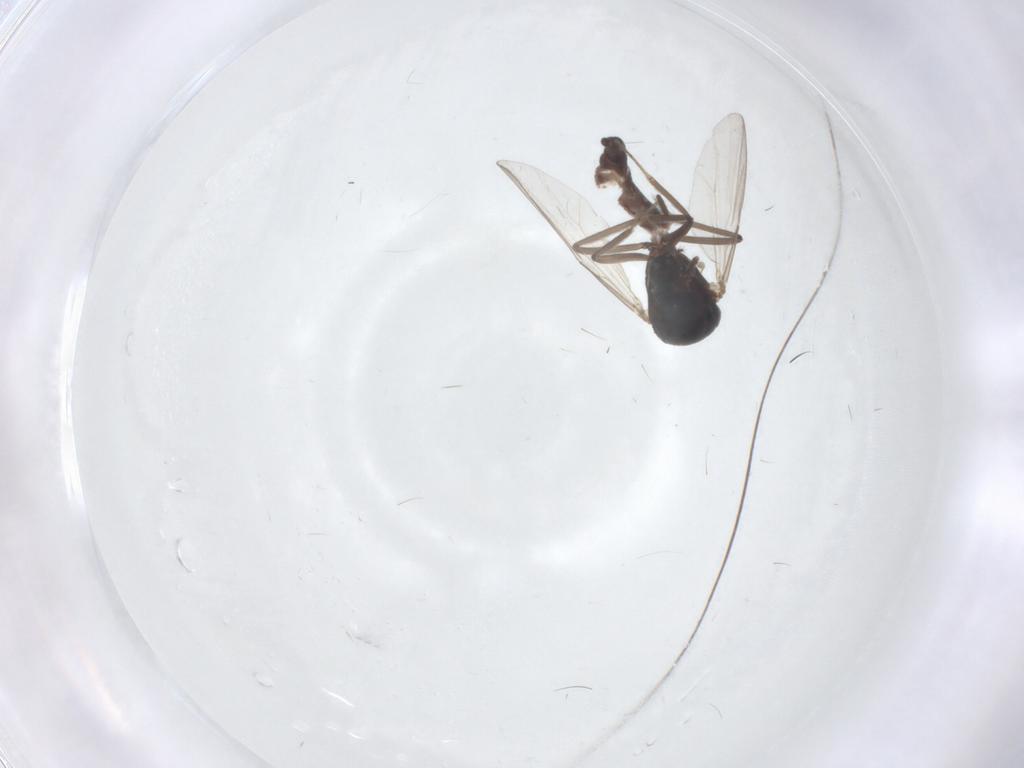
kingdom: Animalia
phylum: Arthropoda
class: Insecta
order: Diptera
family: Ceratopogonidae
